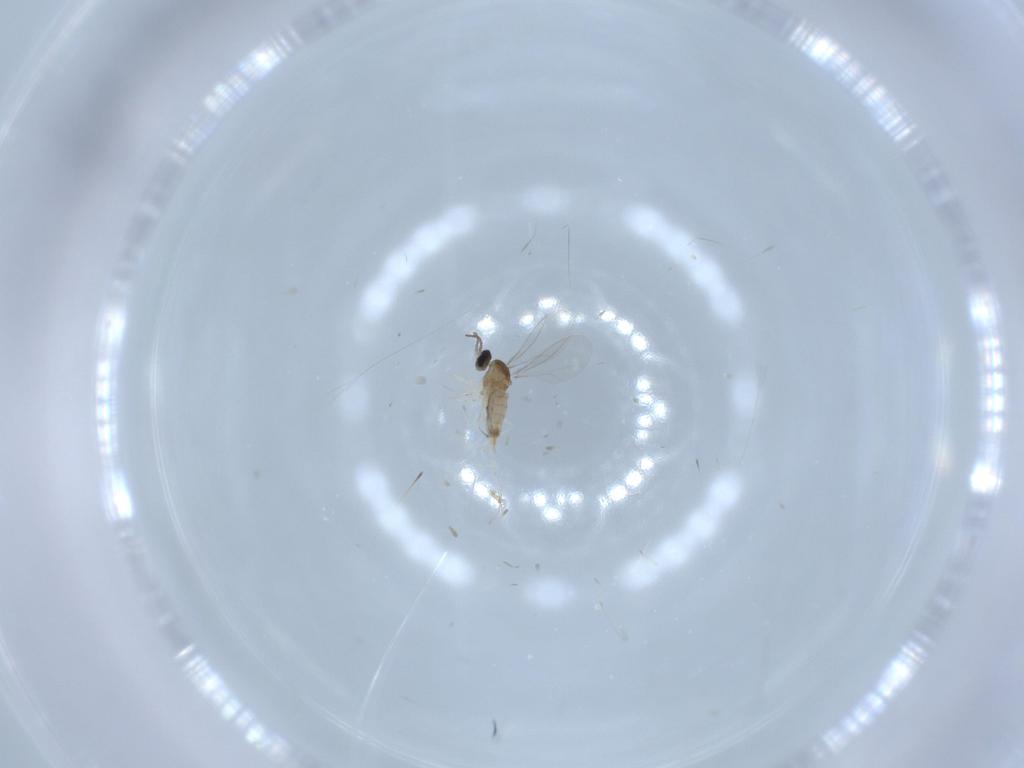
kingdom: Animalia
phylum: Arthropoda
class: Insecta
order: Diptera
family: Cecidomyiidae
